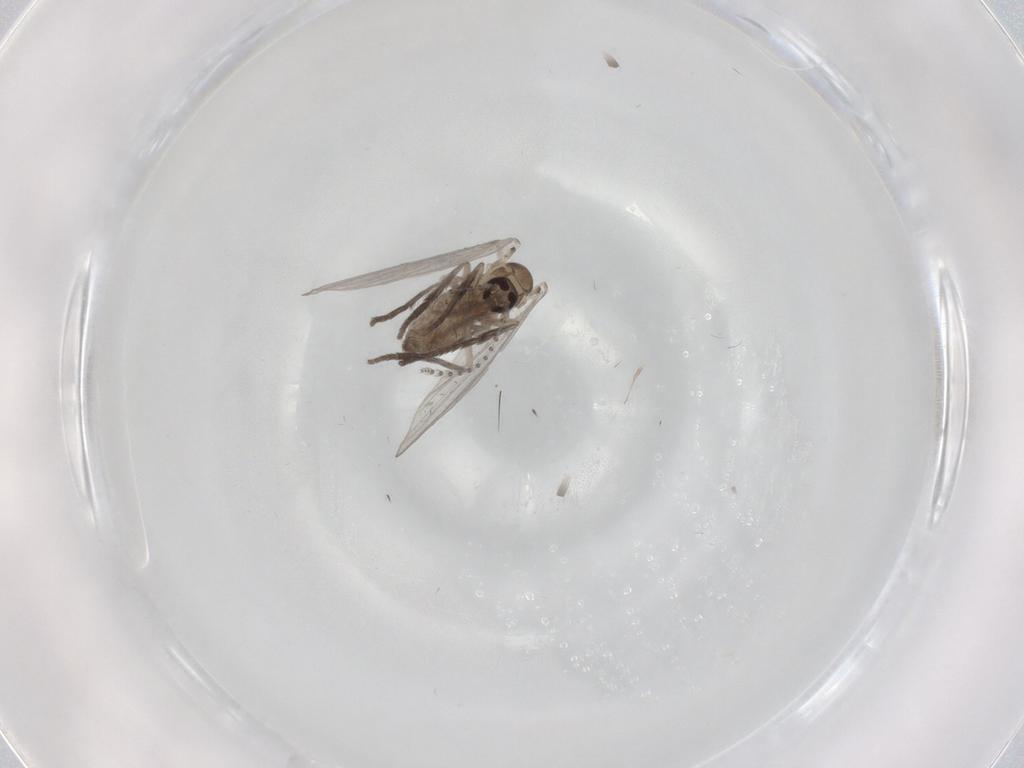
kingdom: Animalia
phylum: Arthropoda
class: Insecta
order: Diptera
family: Psychodidae
